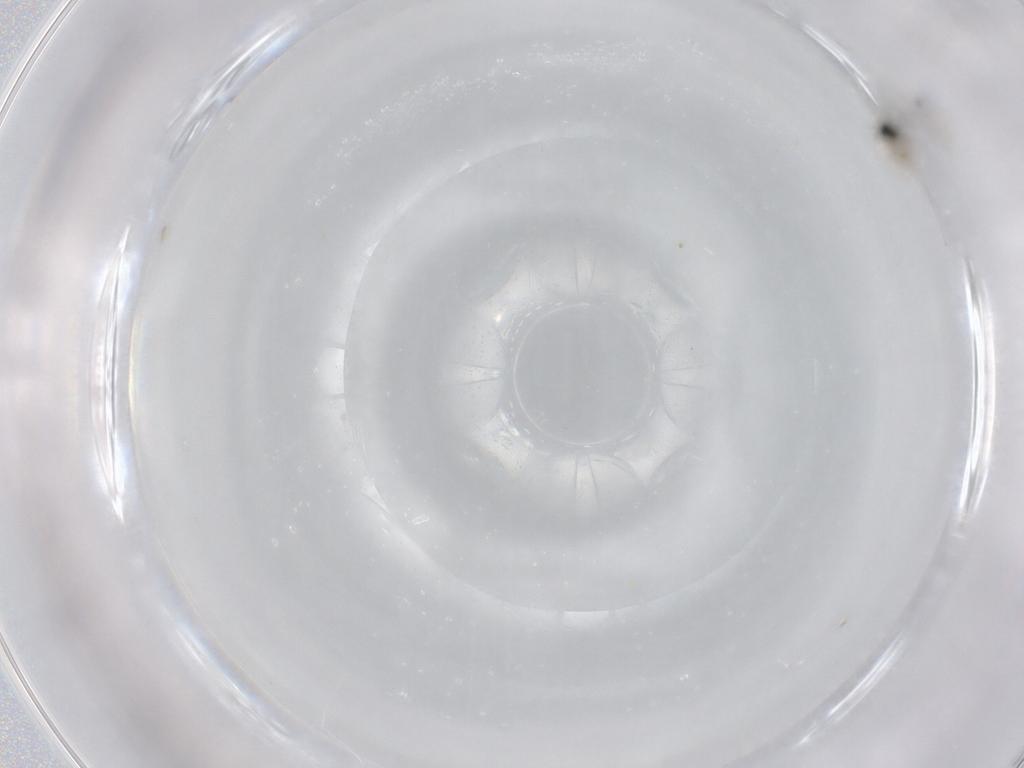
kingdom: Animalia
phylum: Arthropoda
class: Insecta
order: Diptera
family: Cecidomyiidae
